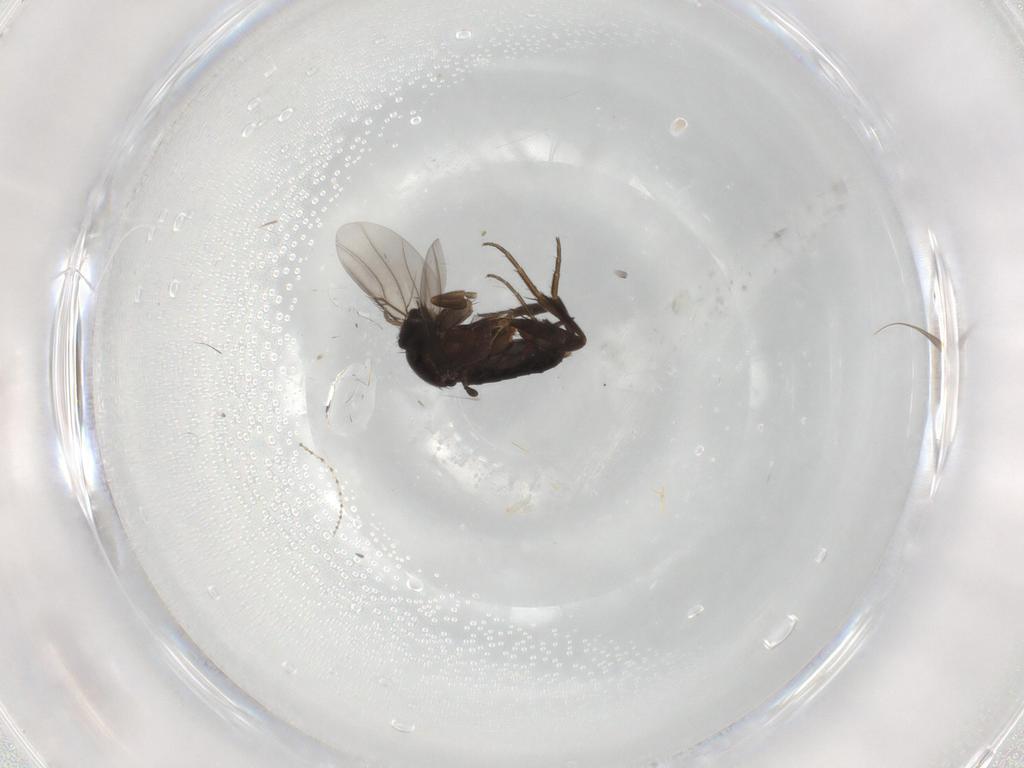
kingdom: Animalia
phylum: Arthropoda
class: Insecta
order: Diptera
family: Phoridae
